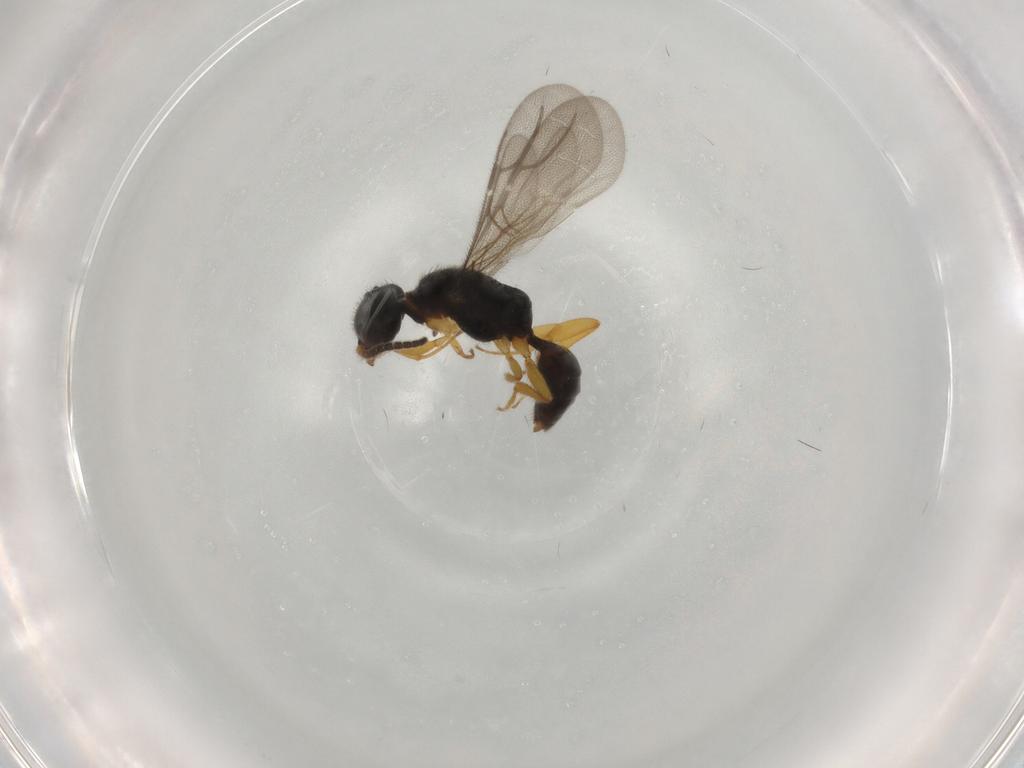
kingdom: Animalia
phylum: Arthropoda
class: Insecta
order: Hymenoptera
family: Bethylidae
